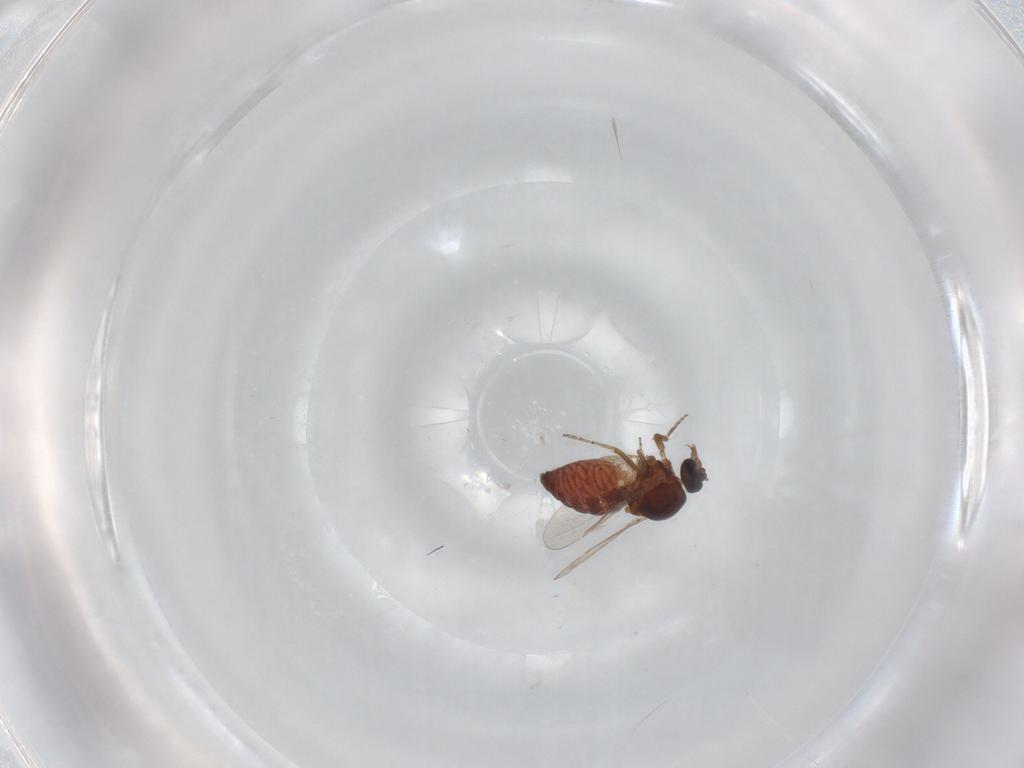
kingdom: Animalia
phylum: Arthropoda
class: Insecta
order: Diptera
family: Ceratopogonidae
